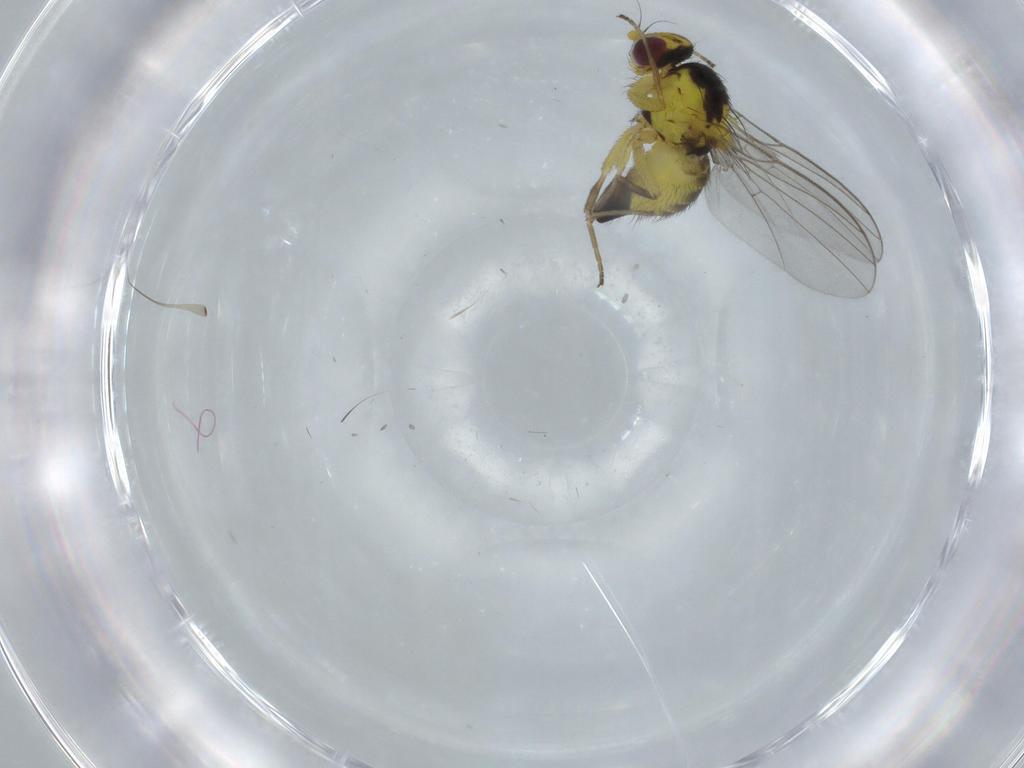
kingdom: Animalia
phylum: Arthropoda
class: Insecta
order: Diptera
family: Agromyzidae
